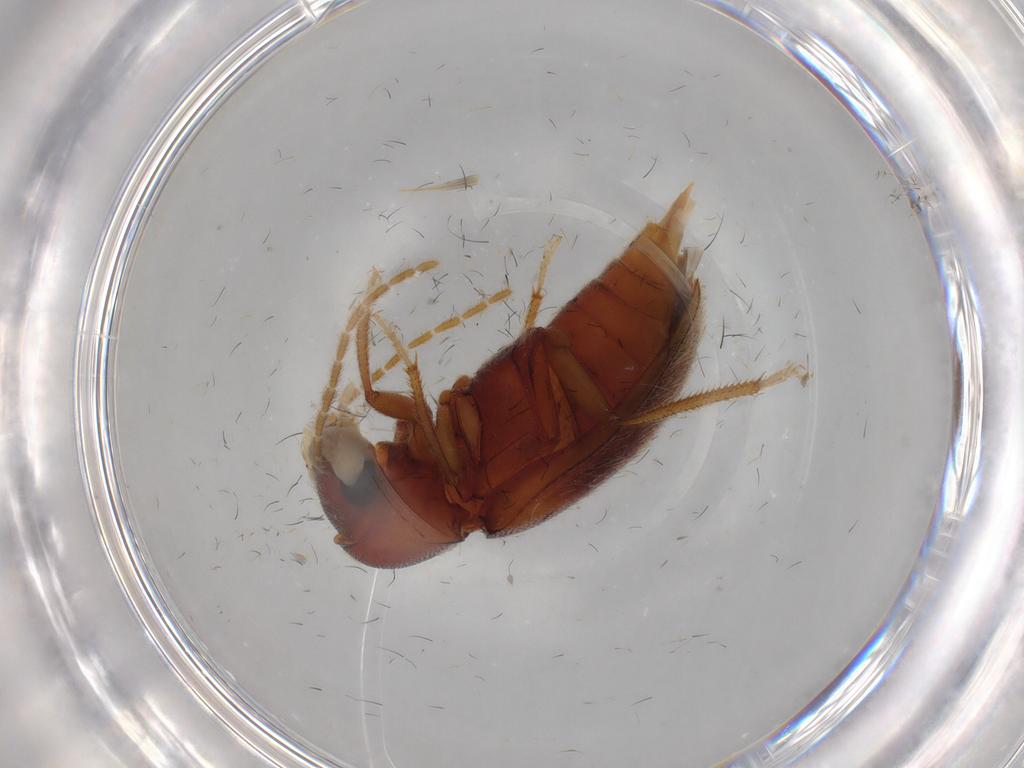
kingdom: Animalia
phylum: Arthropoda
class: Insecta
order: Coleoptera
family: Ptilodactylidae
